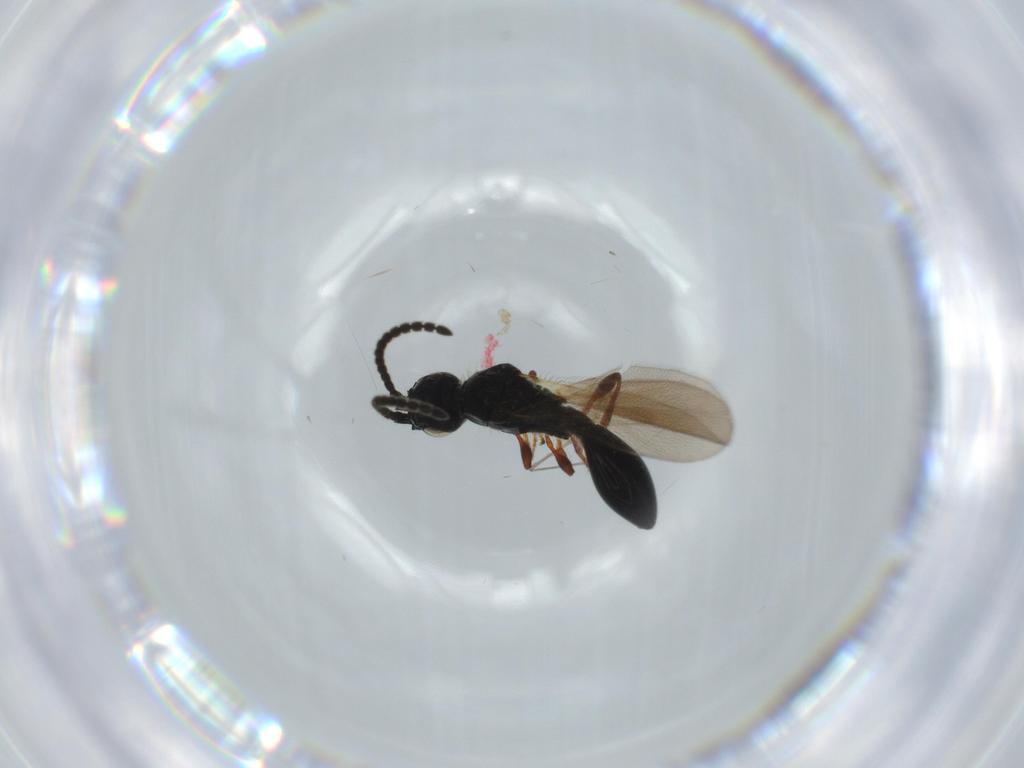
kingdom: Animalia
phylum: Arthropoda
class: Insecta
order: Hymenoptera
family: Diapriidae
